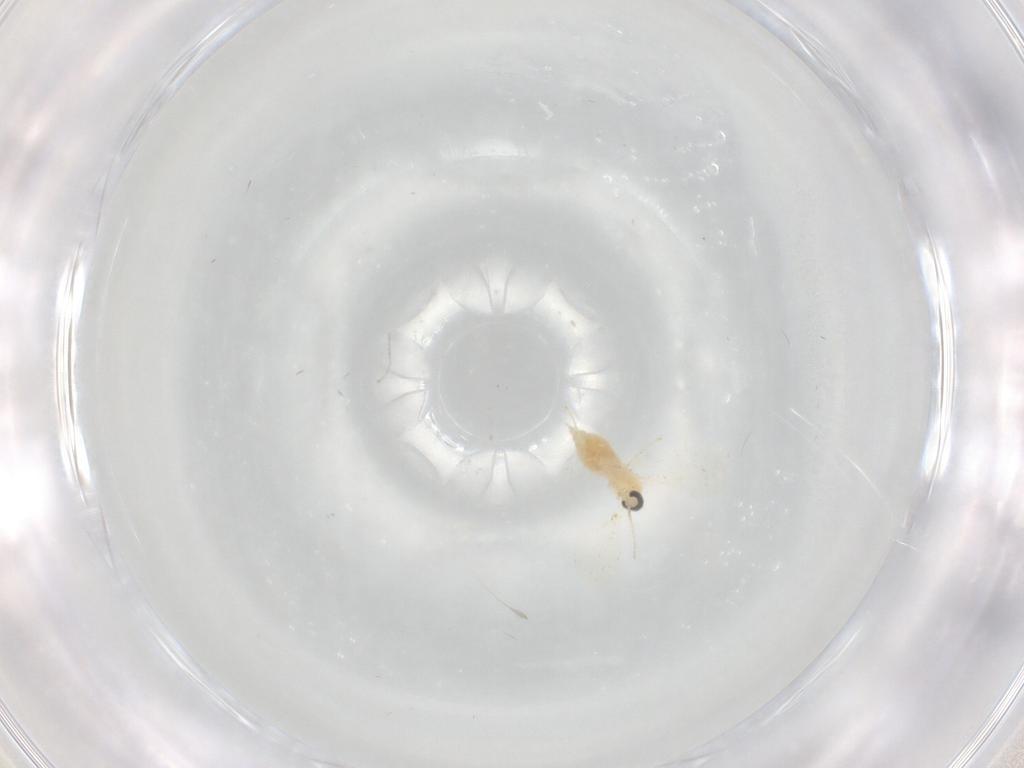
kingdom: Animalia
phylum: Arthropoda
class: Insecta
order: Diptera
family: Cecidomyiidae
